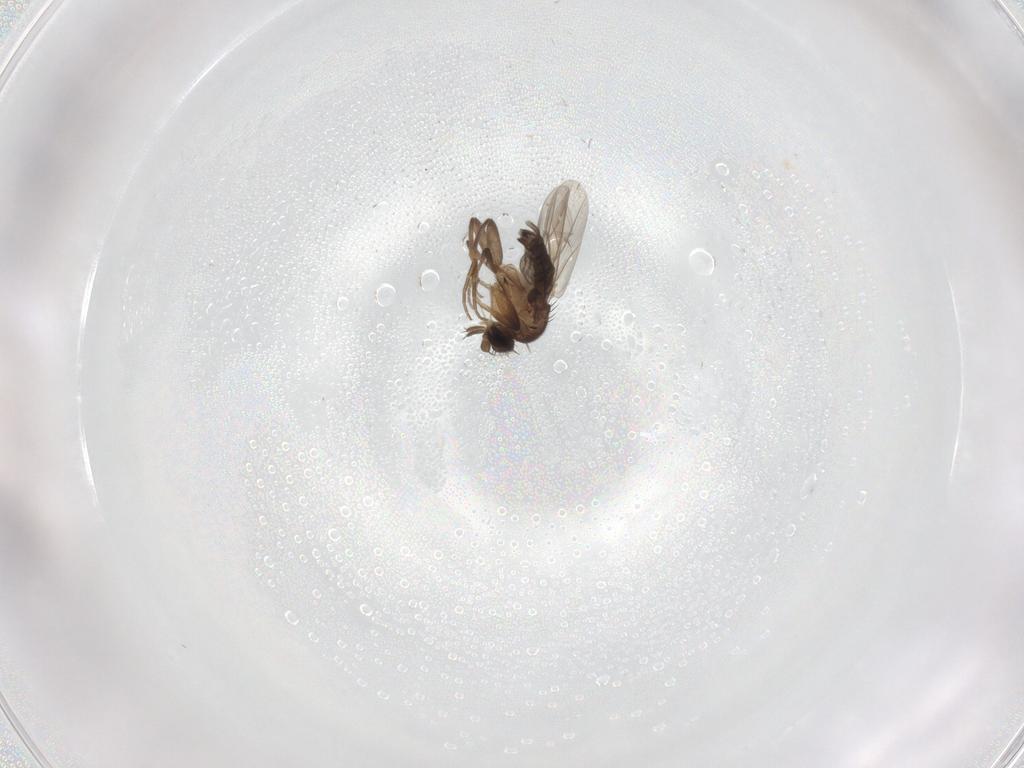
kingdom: Animalia
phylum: Arthropoda
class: Insecta
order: Diptera
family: Phoridae
